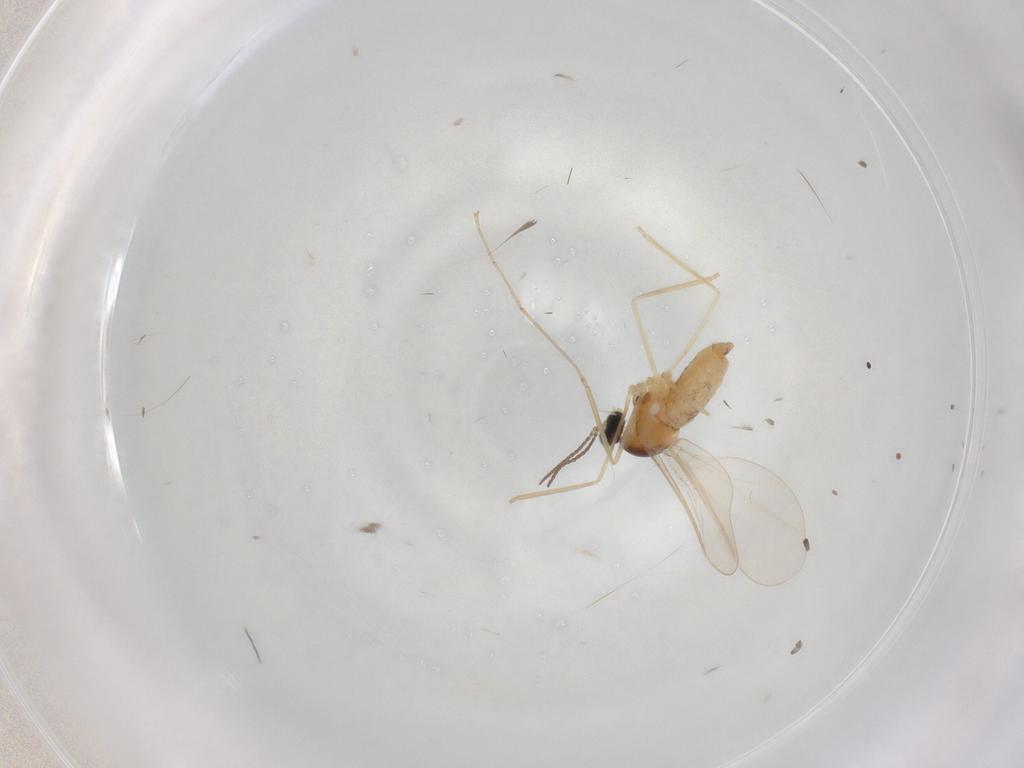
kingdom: Animalia
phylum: Arthropoda
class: Insecta
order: Diptera
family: Cecidomyiidae
